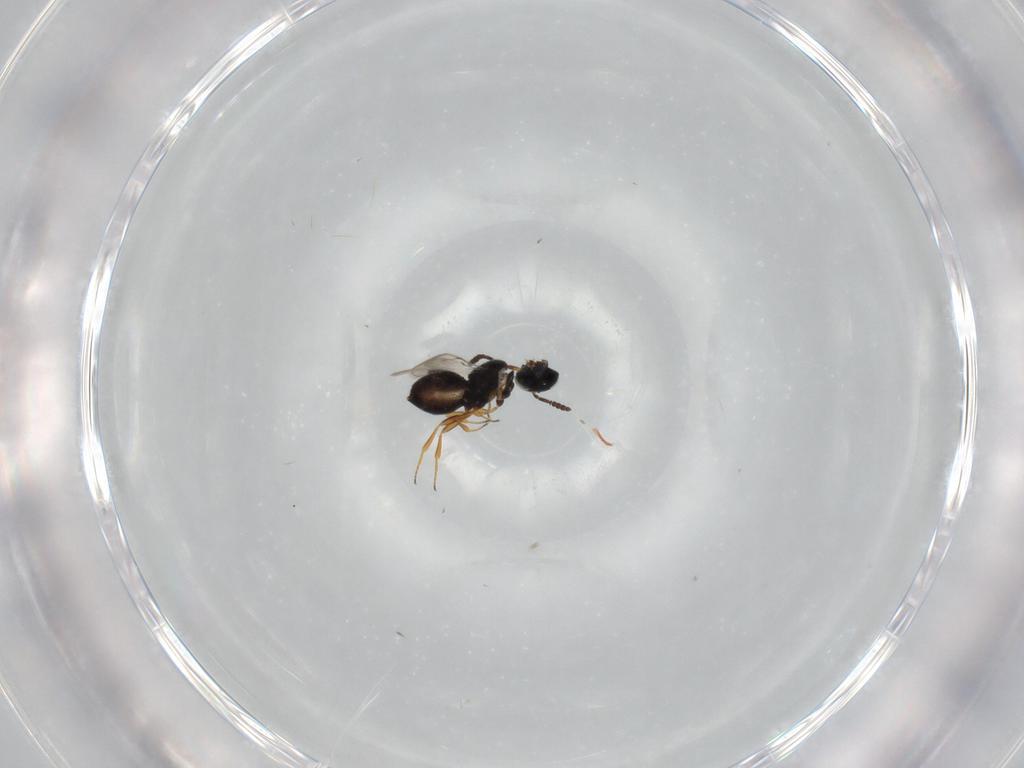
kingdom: Animalia
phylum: Arthropoda
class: Insecta
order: Hymenoptera
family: Scelionidae
